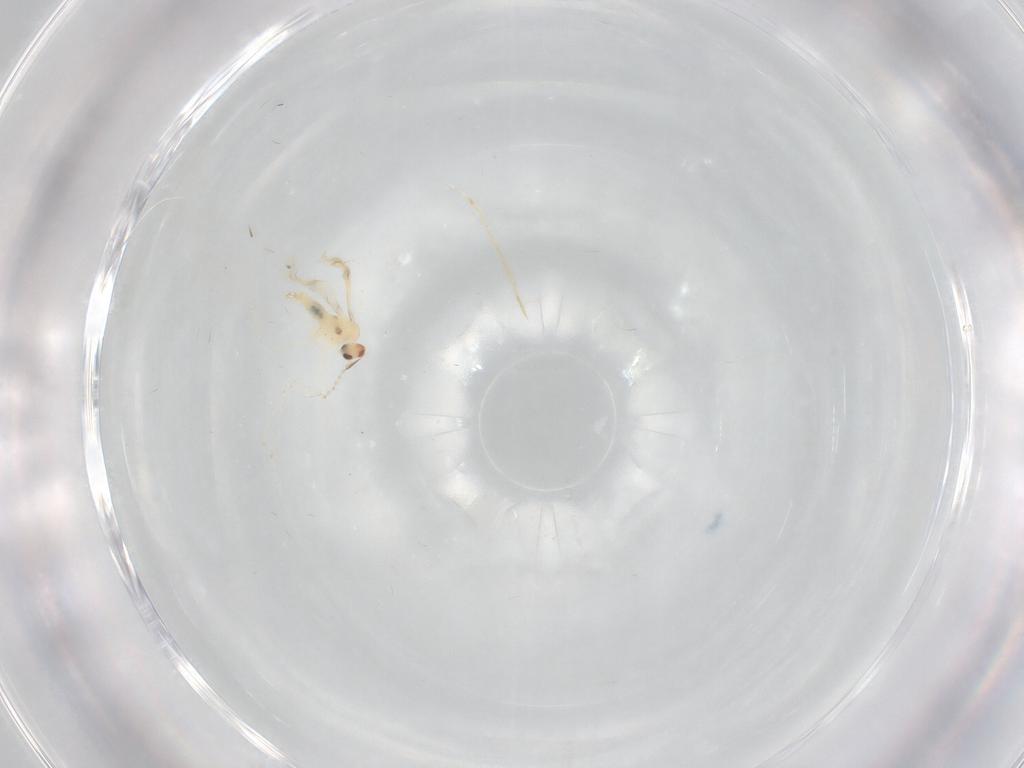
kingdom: Animalia
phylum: Arthropoda
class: Insecta
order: Diptera
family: Cecidomyiidae
